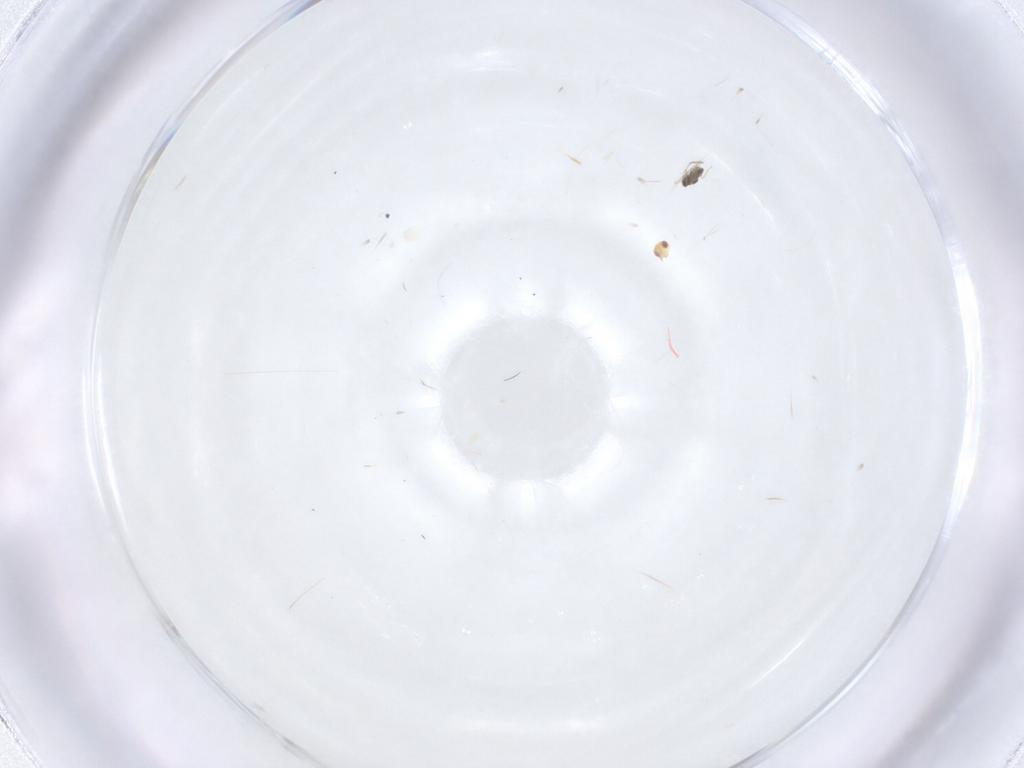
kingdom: Animalia
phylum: Arthropoda
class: Insecta
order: Hymenoptera
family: Trichogrammatidae
